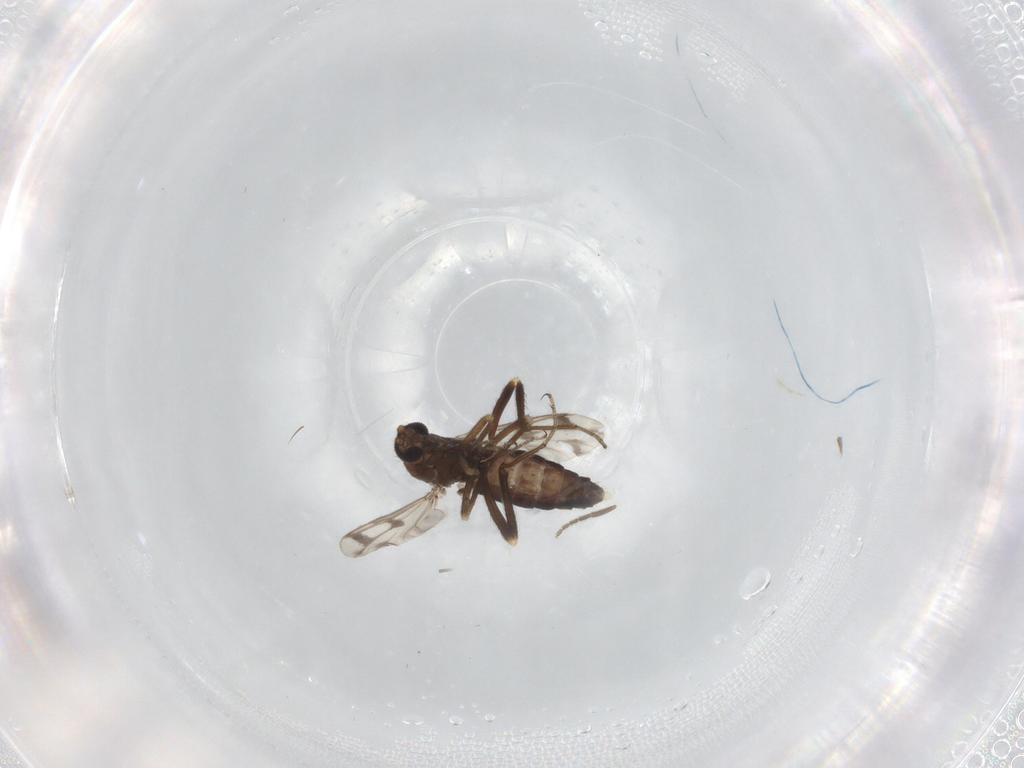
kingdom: Animalia
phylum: Arthropoda
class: Insecta
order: Diptera
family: Ceratopogonidae
